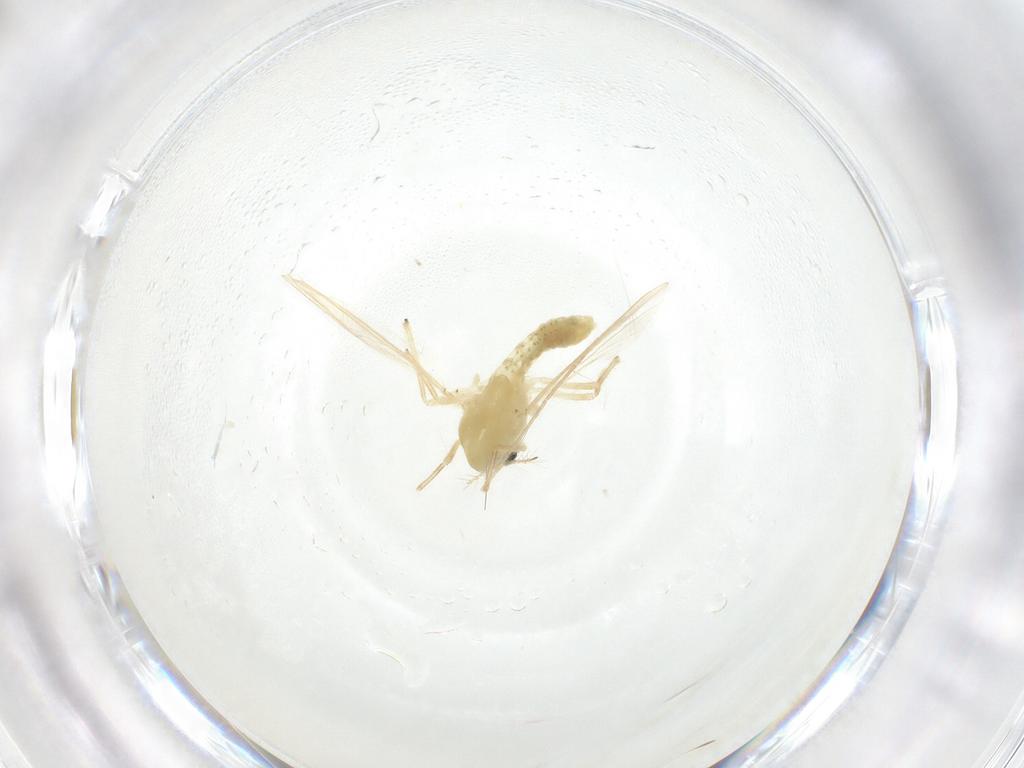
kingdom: Animalia
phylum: Arthropoda
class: Insecta
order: Diptera
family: Chironomidae
